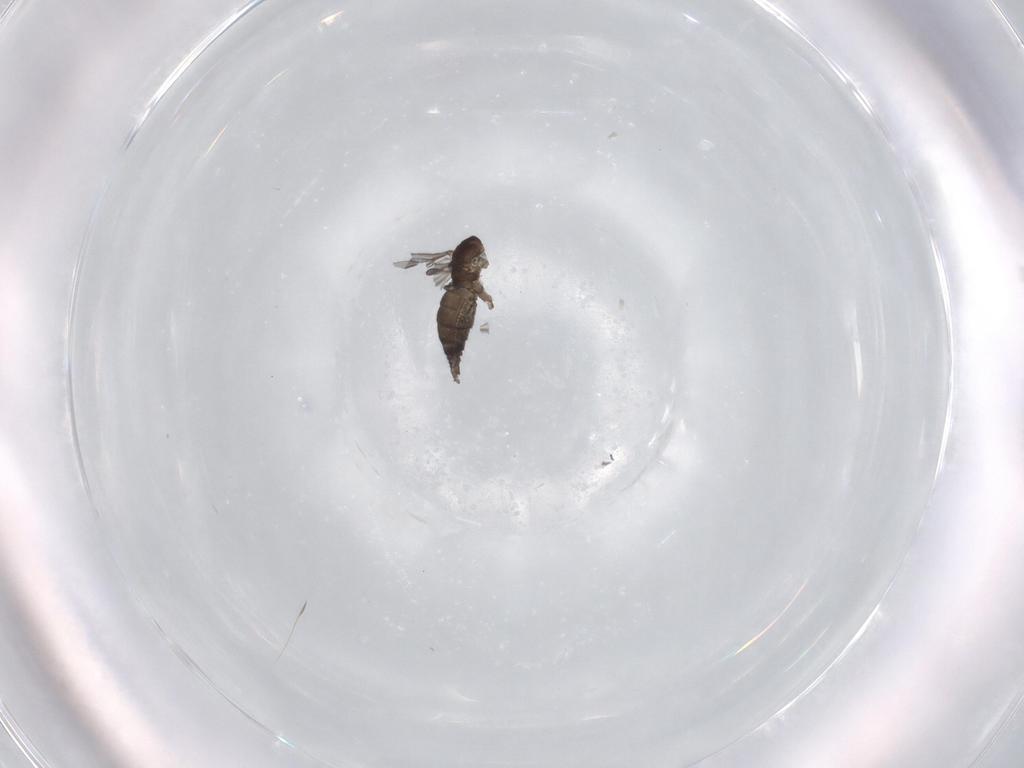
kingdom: Animalia
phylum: Arthropoda
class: Insecta
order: Diptera
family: Sciaridae
